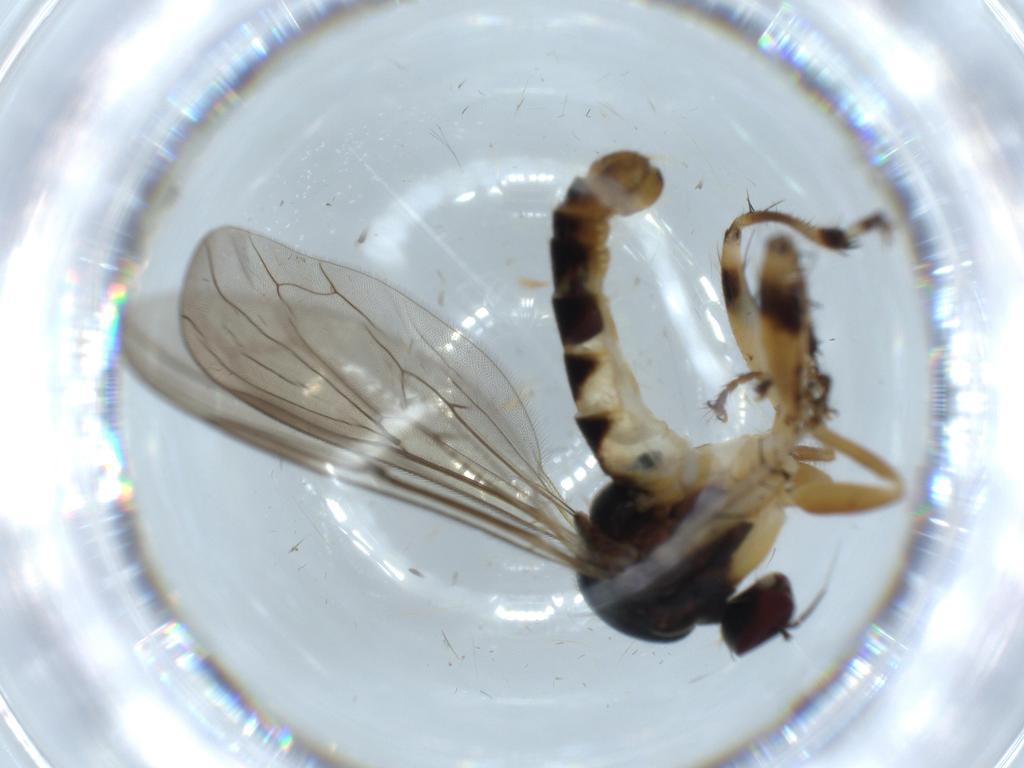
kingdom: Animalia
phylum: Arthropoda
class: Insecta
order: Diptera
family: Hybotidae
